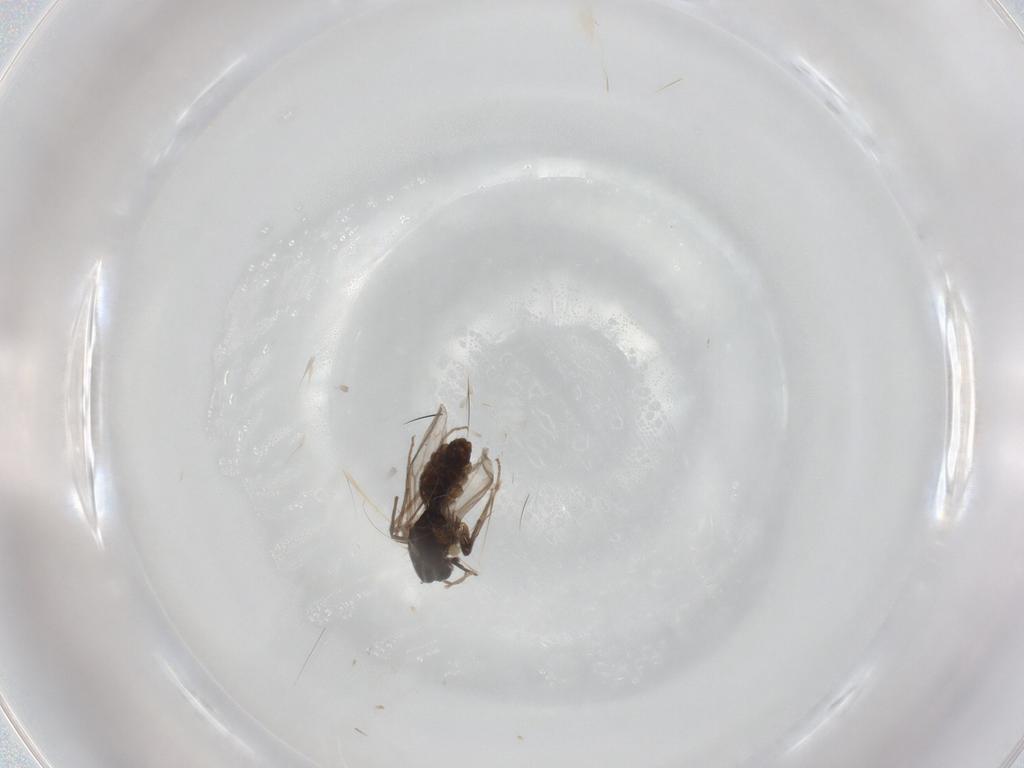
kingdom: Animalia
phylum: Arthropoda
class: Insecta
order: Diptera
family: Chironomidae
